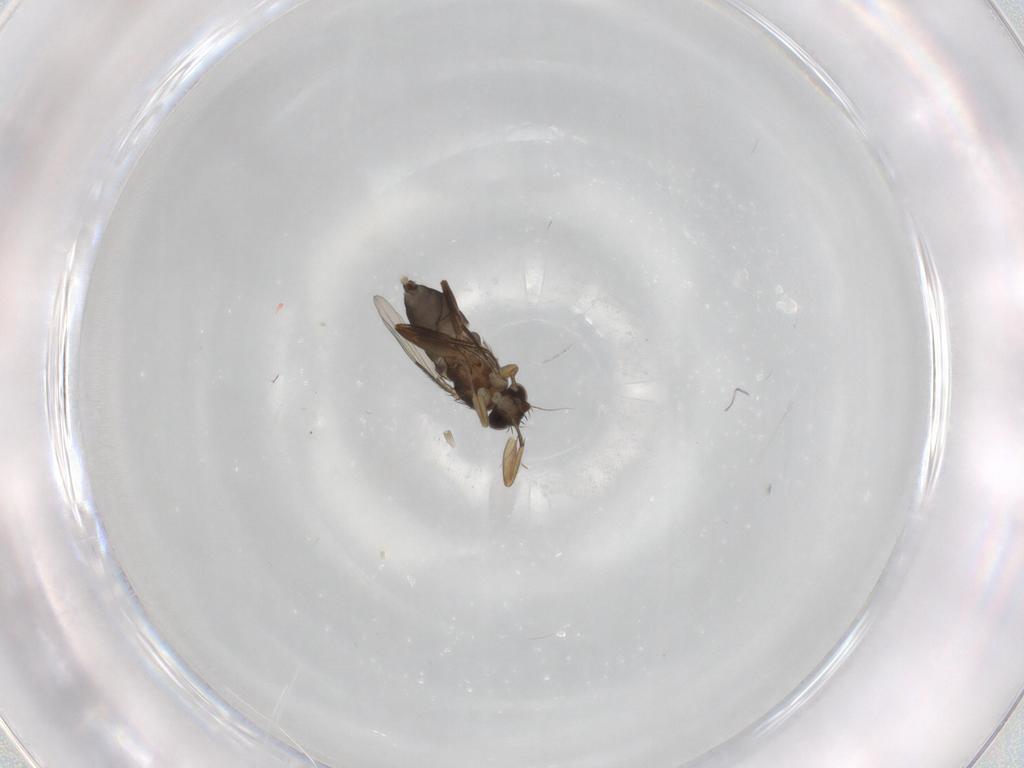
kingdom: Animalia
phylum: Arthropoda
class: Insecta
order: Diptera
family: Phoridae
